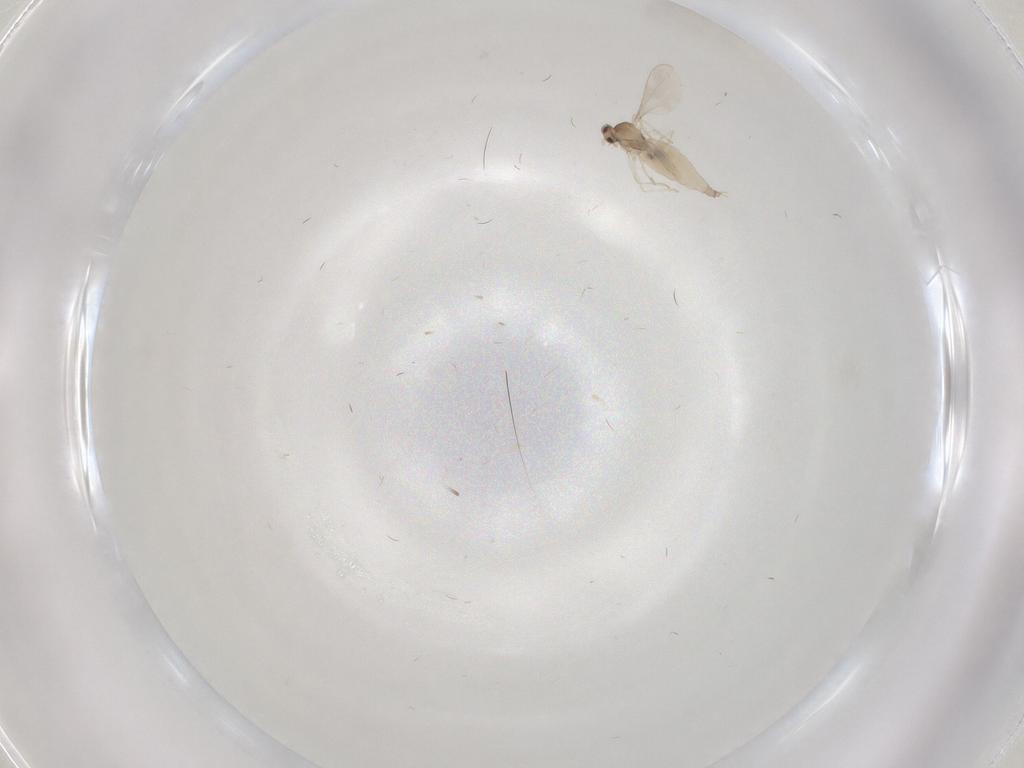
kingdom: Animalia
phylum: Arthropoda
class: Insecta
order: Diptera
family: Cecidomyiidae
